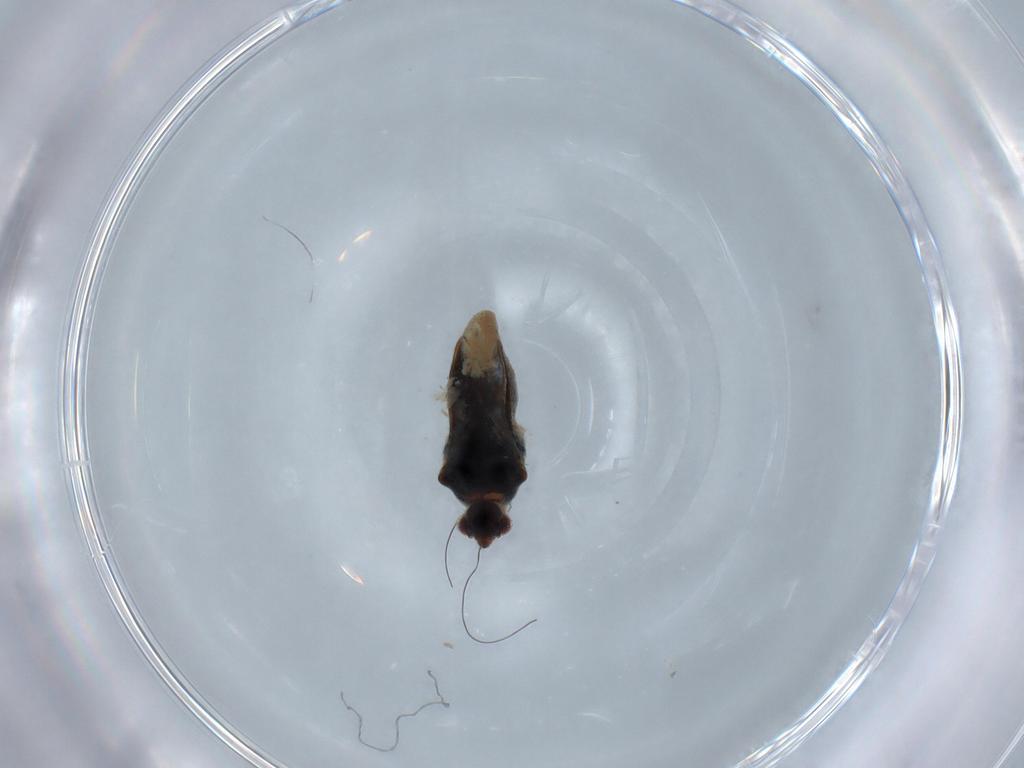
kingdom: Animalia
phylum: Arthropoda
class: Insecta
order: Hemiptera
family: Veliidae
